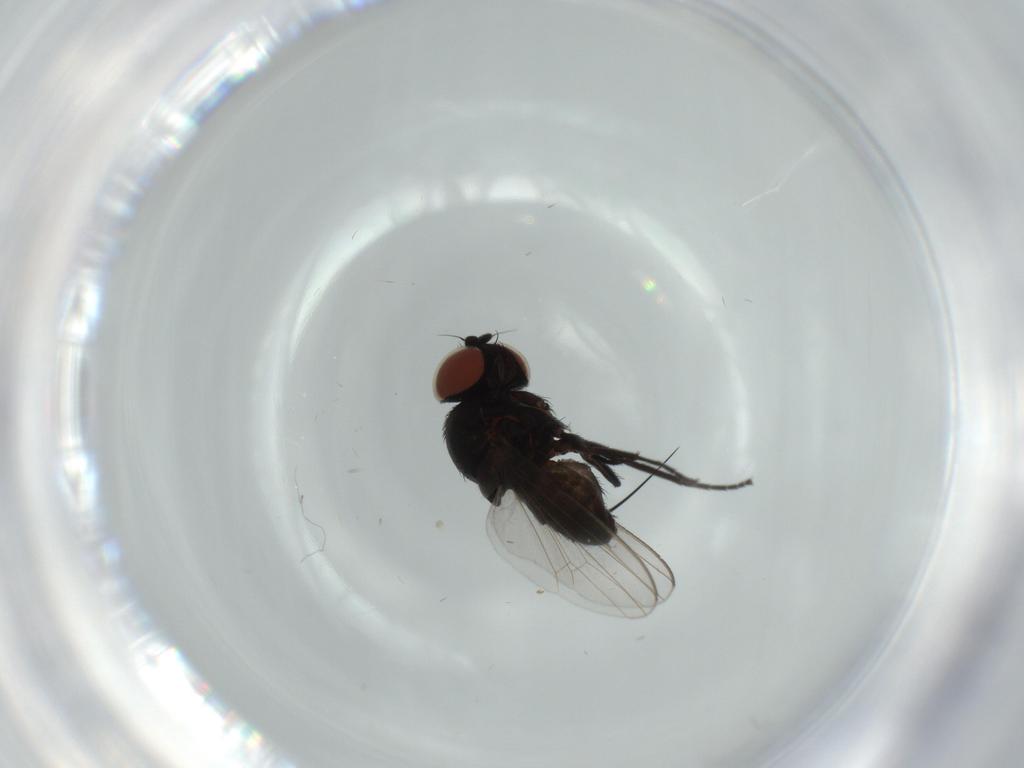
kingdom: Animalia
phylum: Arthropoda
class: Insecta
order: Diptera
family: Milichiidae
